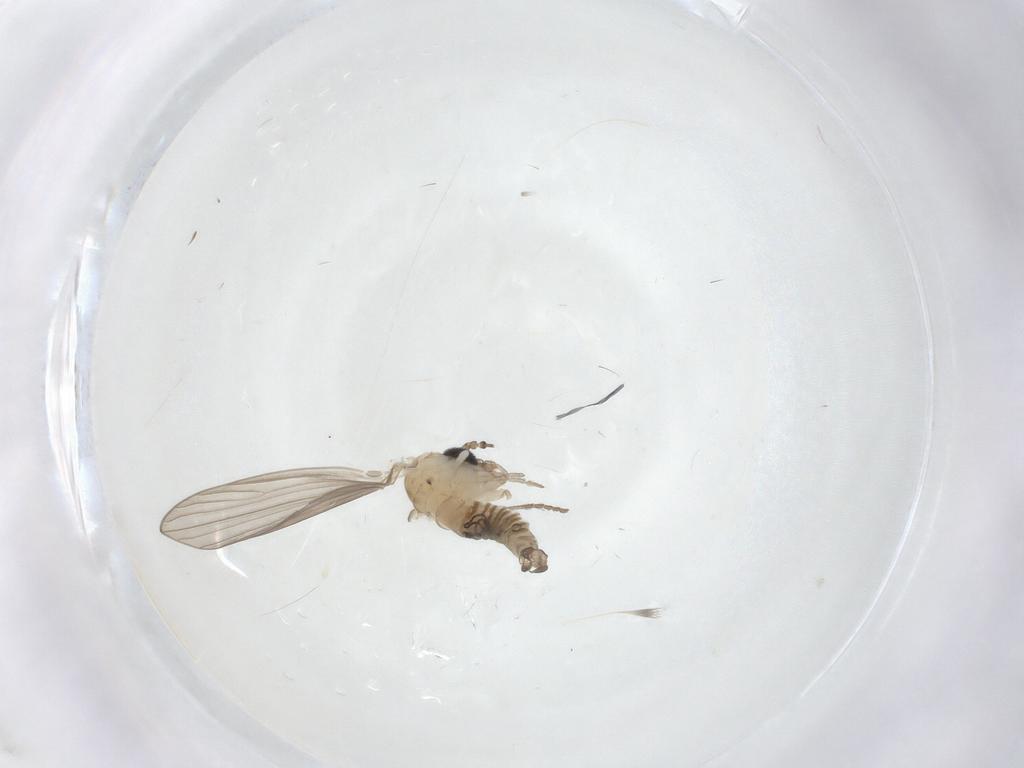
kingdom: Animalia
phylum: Arthropoda
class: Insecta
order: Diptera
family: Psychodidae
